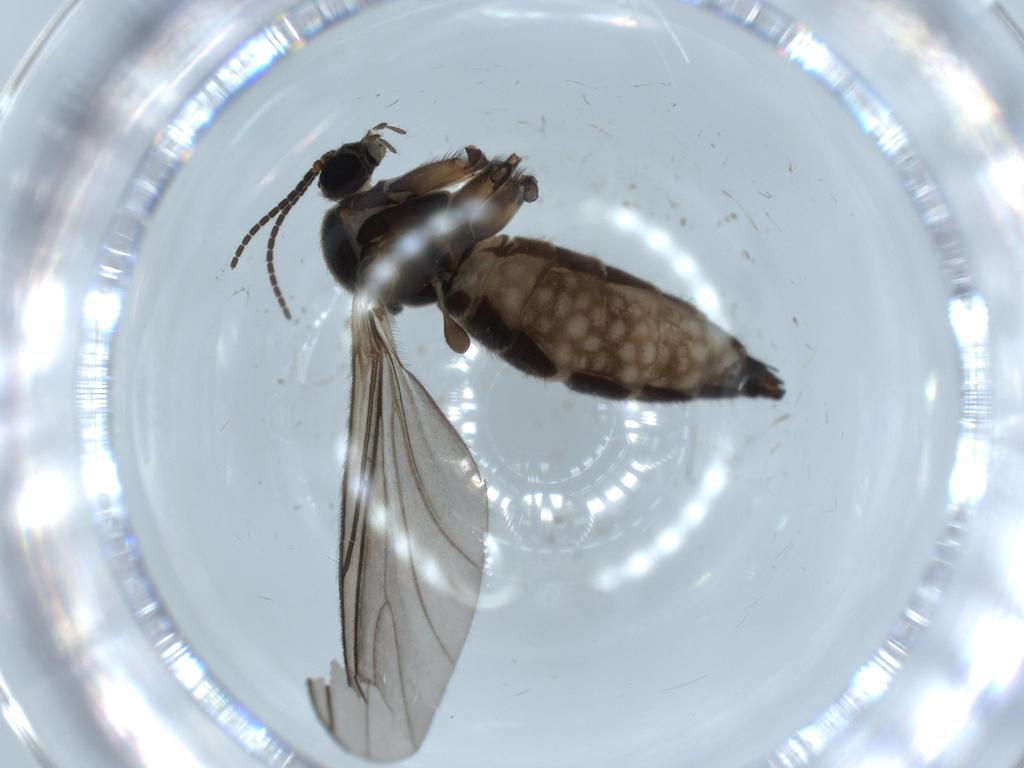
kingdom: Animalia
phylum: Arthropoda
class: Insecta
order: Diptera
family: Sciaridae
